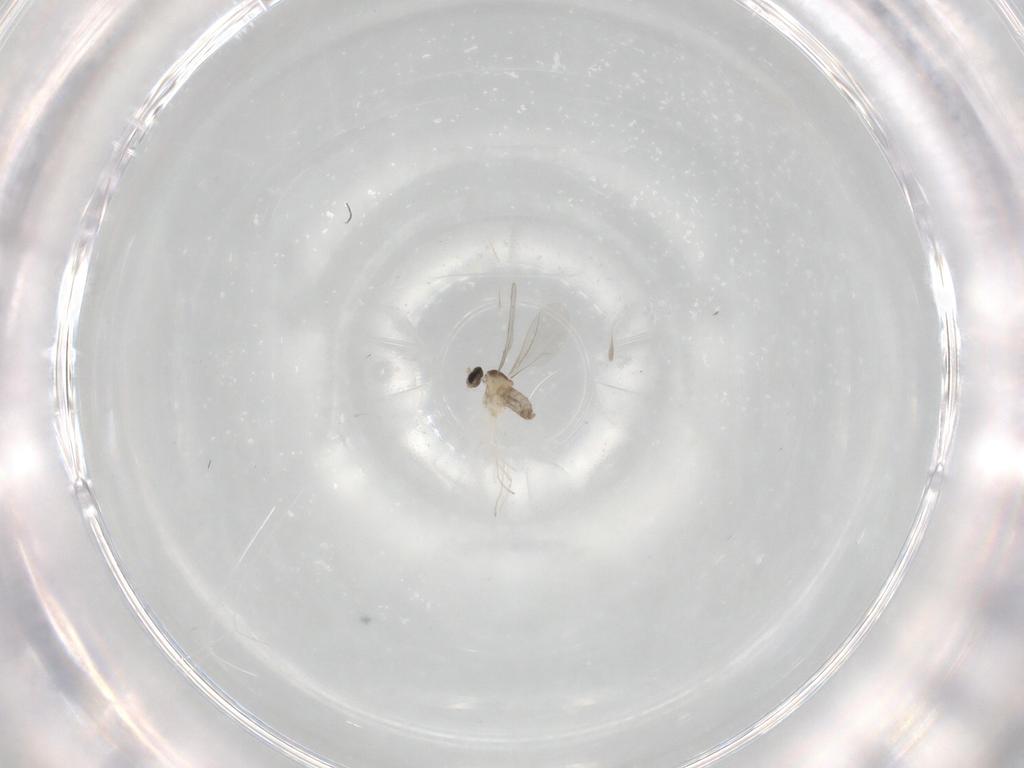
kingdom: Animalia
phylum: Arthropoda
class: Insecta
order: Diptera
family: Cecidomyiidae
